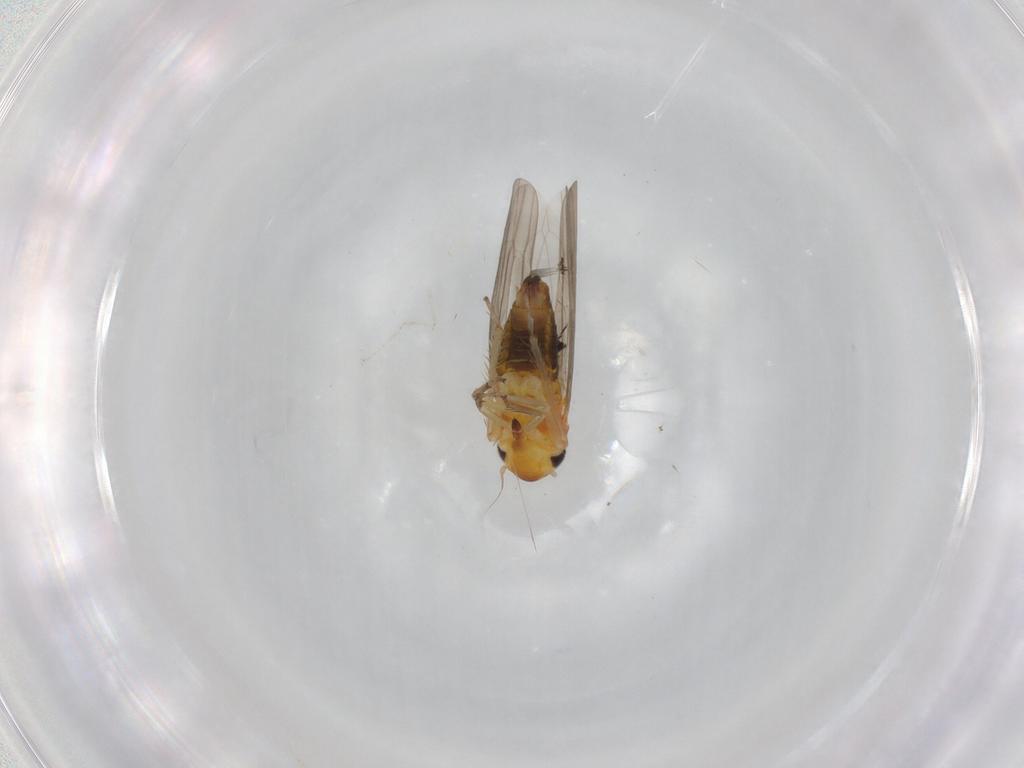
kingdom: Animalia
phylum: Arthropoda
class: Insecta
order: Hemiptera
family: Cicadellidae
